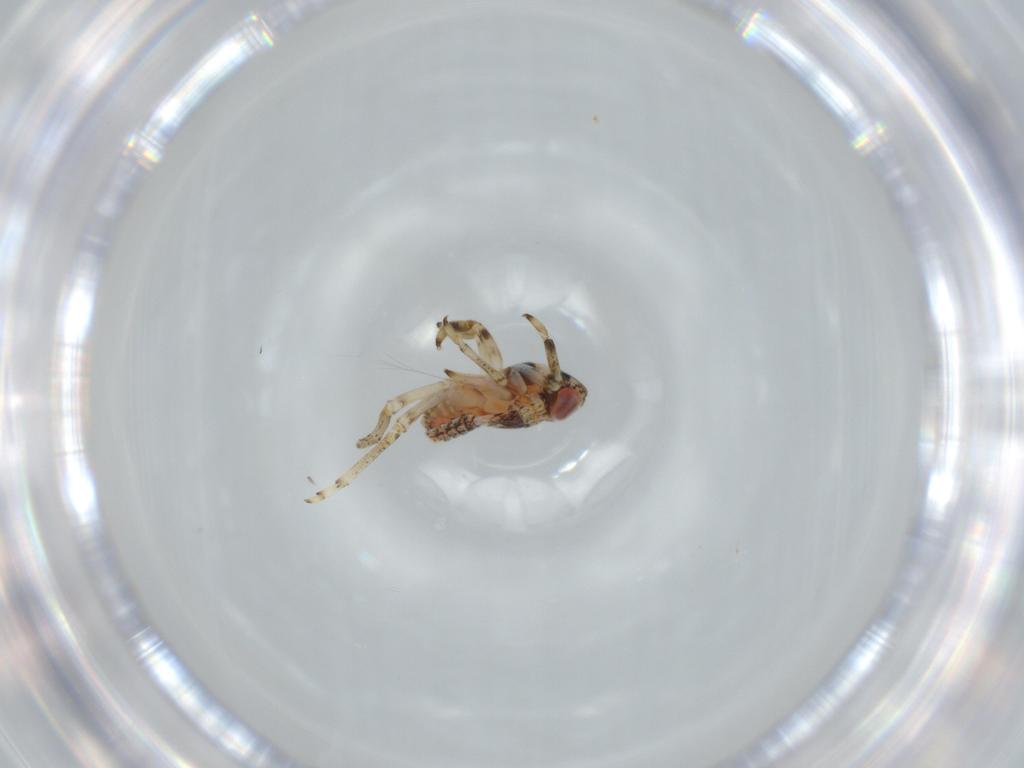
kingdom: Animalia
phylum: Arthropoda
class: Insecta
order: Hemiptera
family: Issidae
